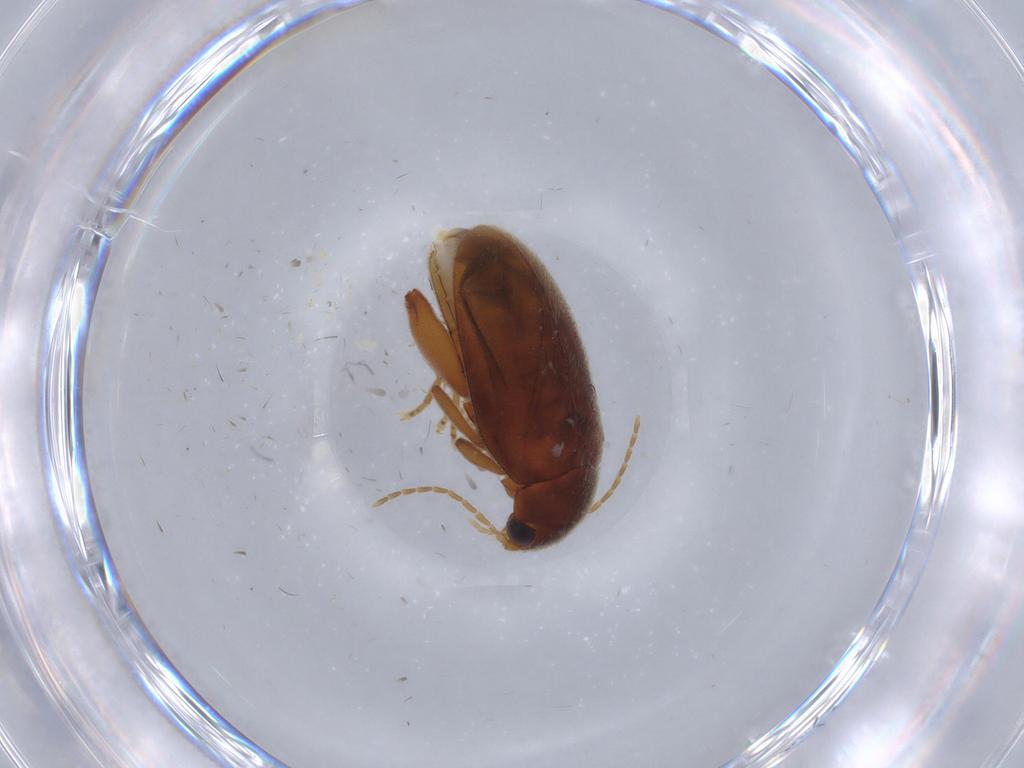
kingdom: Animalia
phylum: Arthropoda
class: Insecta
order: Coleoptera
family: Scirtidae
